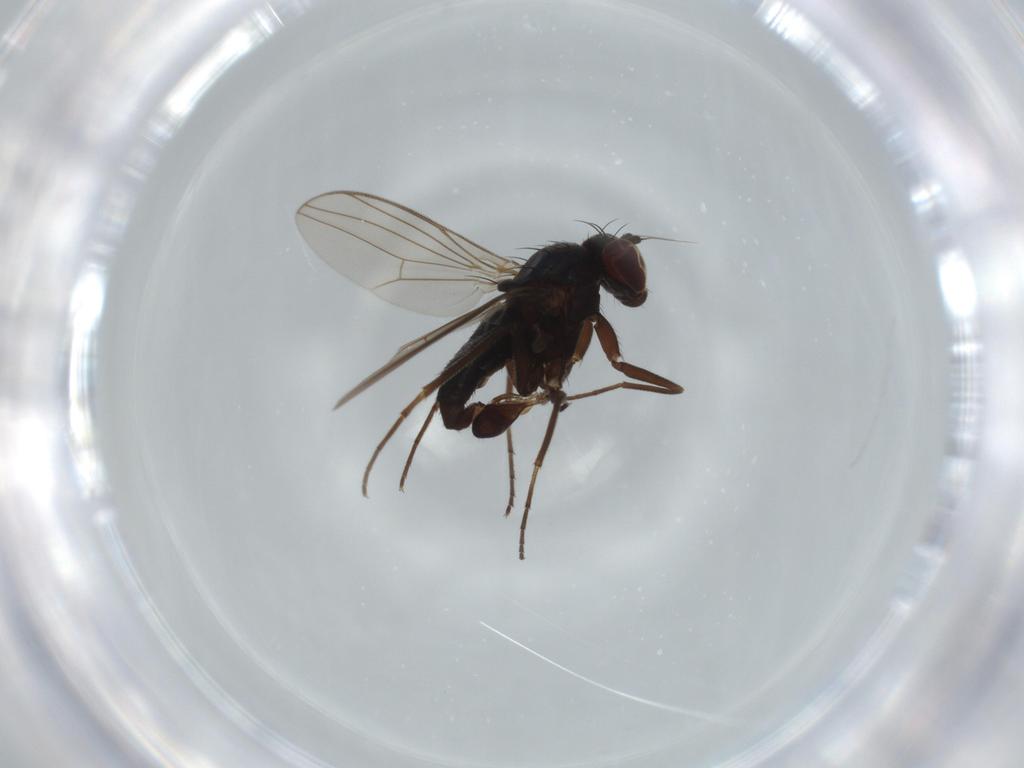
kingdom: Animalia
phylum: Arthropoda
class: Insecta
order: Diptera
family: Dolichopodidae
